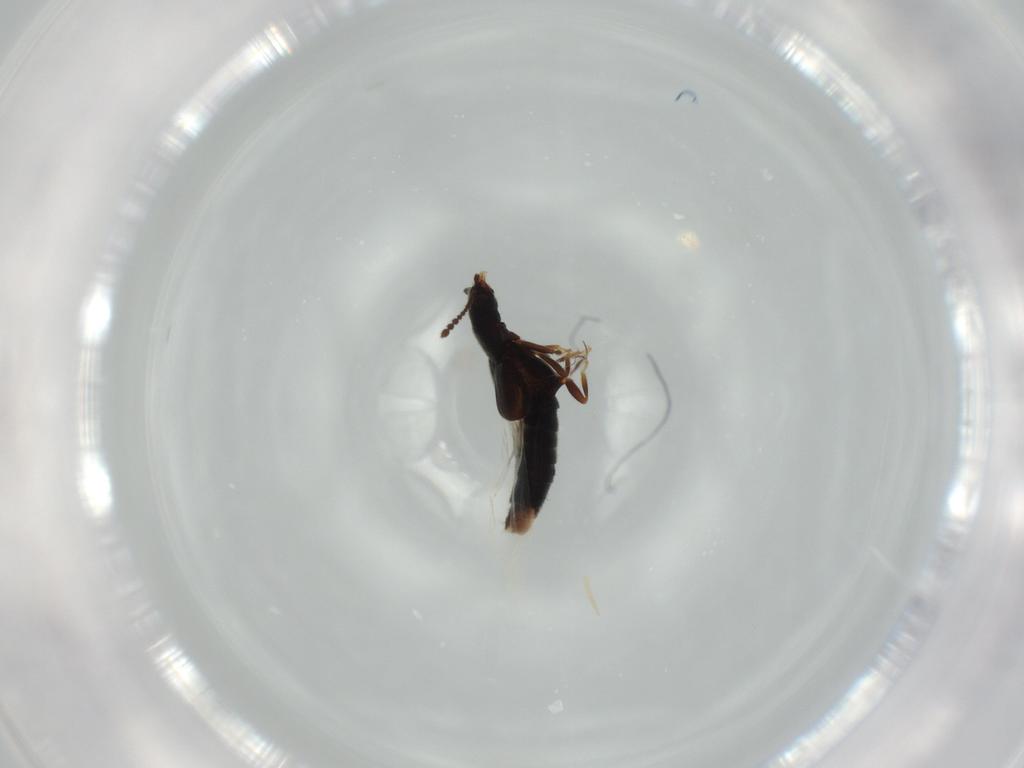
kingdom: Animalia
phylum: Arthropoda
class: Insecta
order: Coleoptera
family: Staphylinidae
